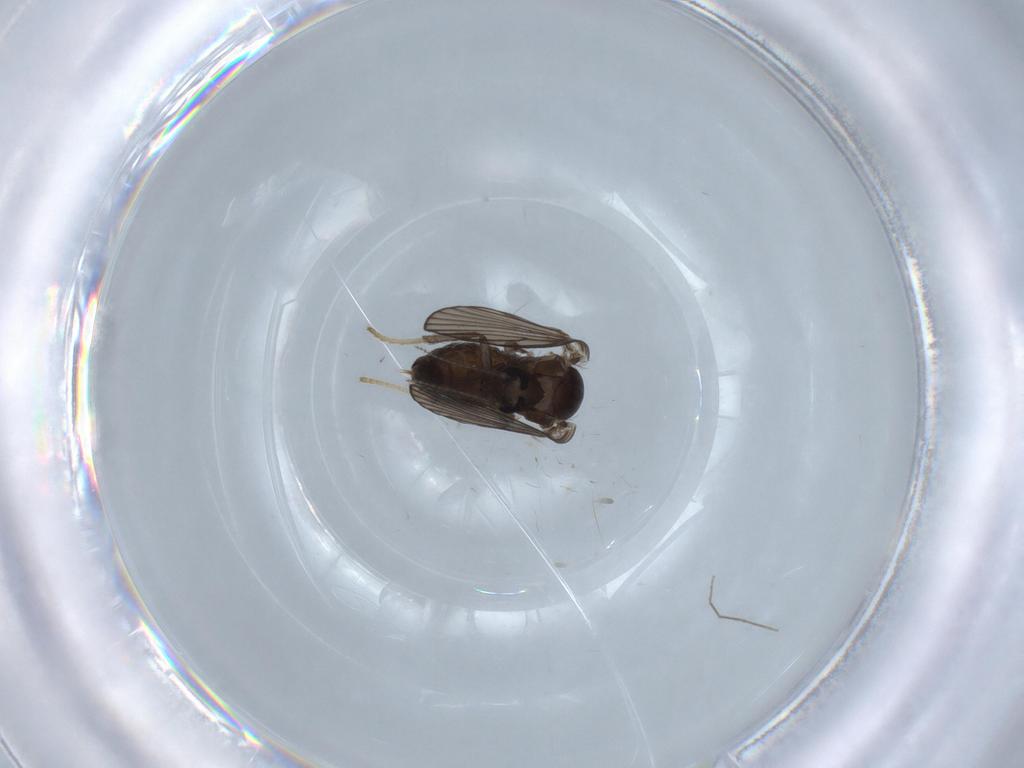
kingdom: Animalia
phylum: Arthropoda
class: Insecta
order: Diptera
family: Psychodidae
